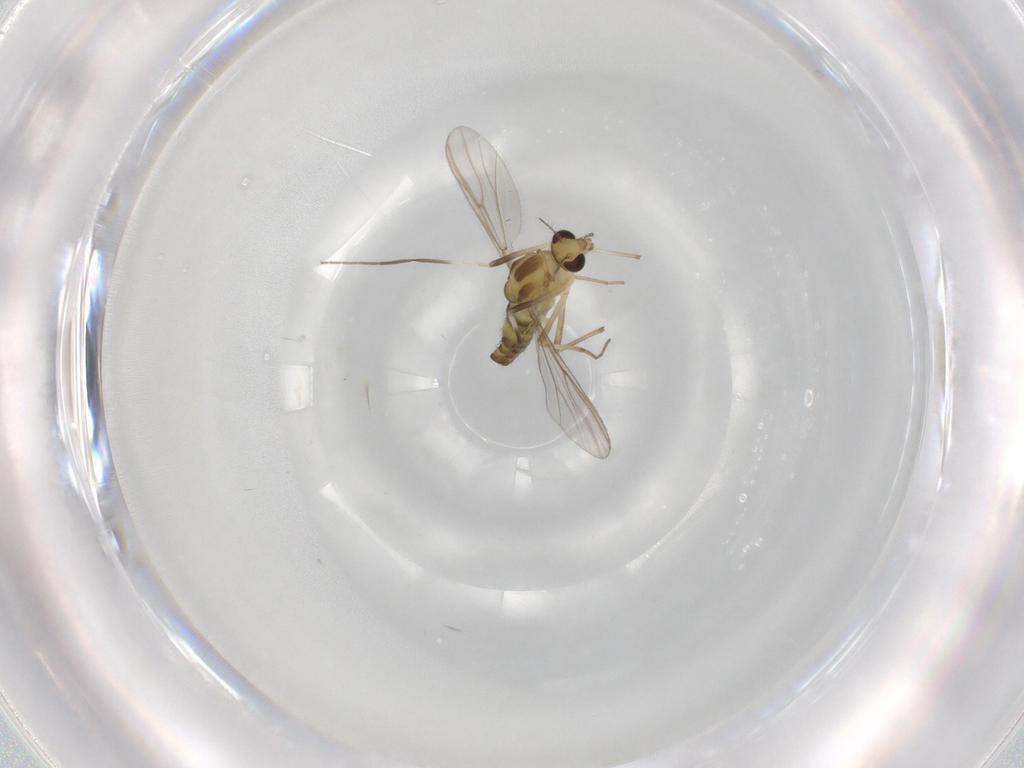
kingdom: Animalia
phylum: Arthropoda
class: Insecta
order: Diptera
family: Chironomidae
